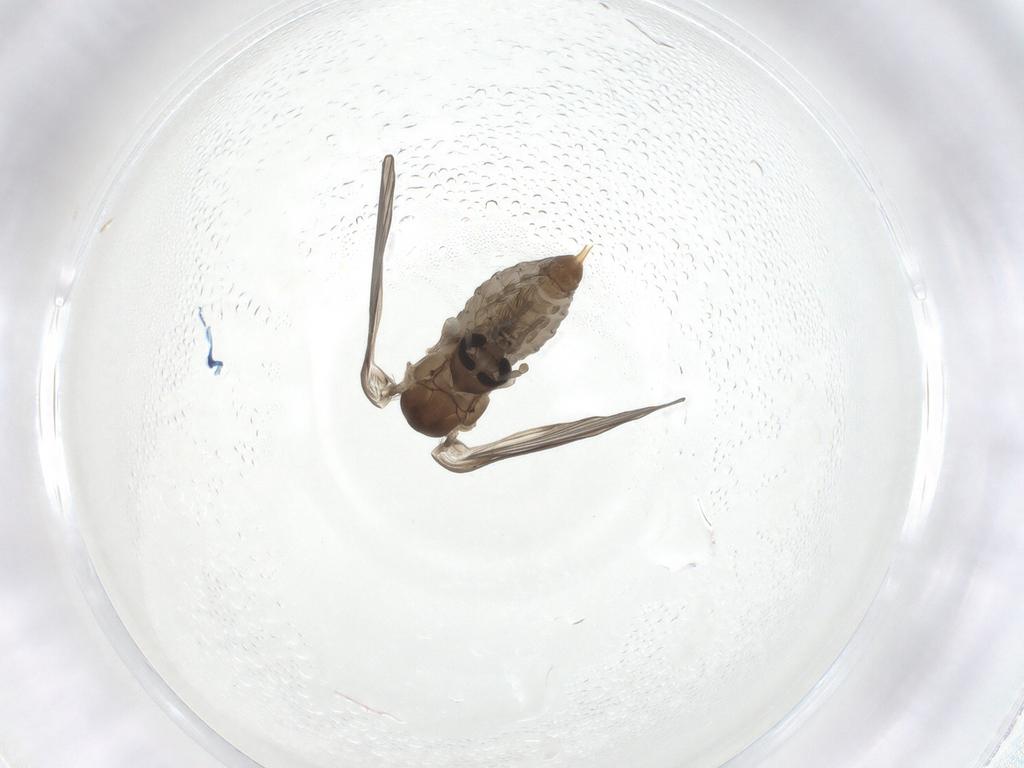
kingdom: Animalia
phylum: Arthropoda
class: Insecta
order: Diptera
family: Psychodidae
